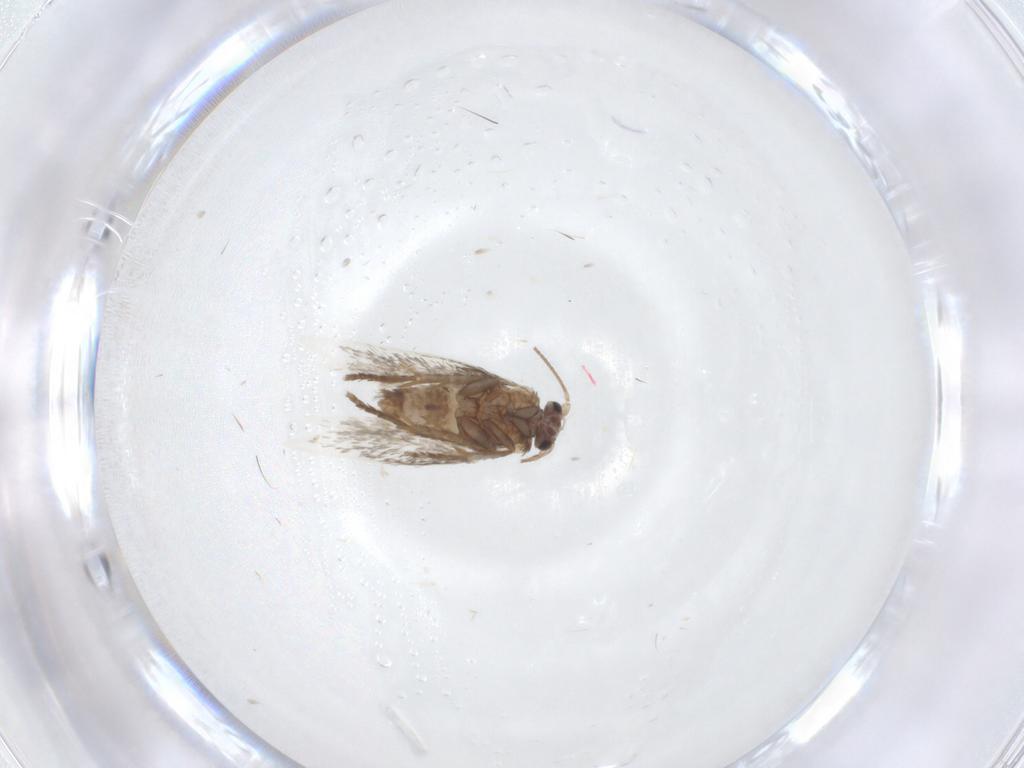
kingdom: Animalia
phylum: Arthropoda
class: Insecta
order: Lepidoptera
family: Nepticulidae
